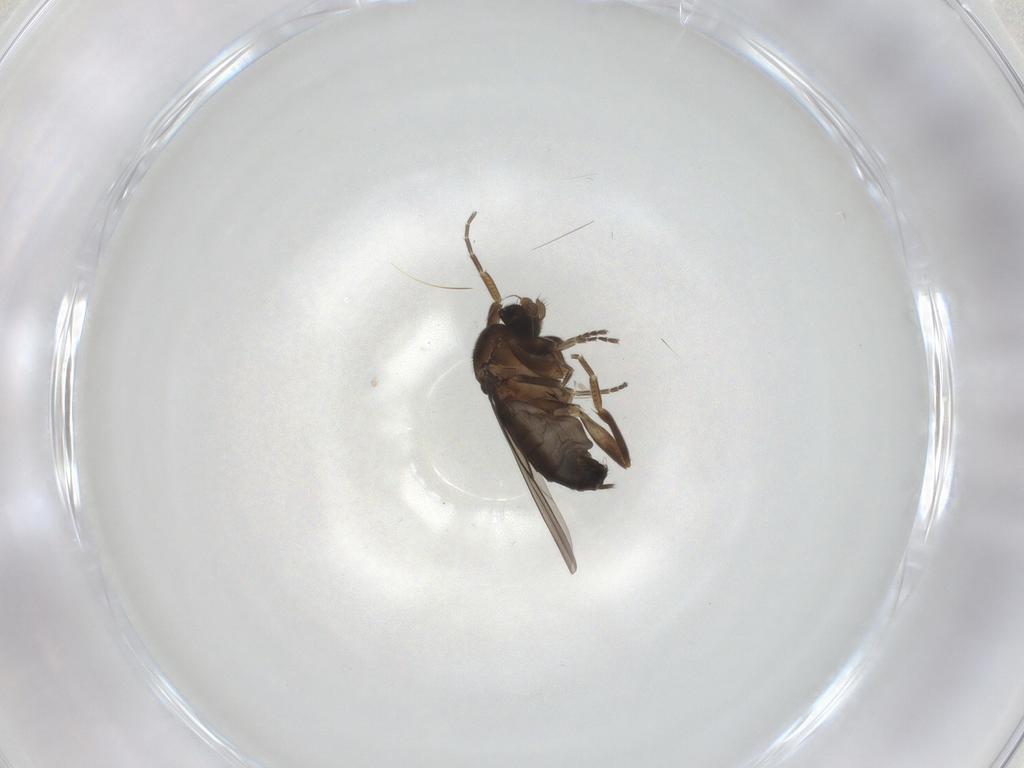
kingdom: Animalia
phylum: Arthropoda
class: Insecta
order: Diptera
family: Phoridae
